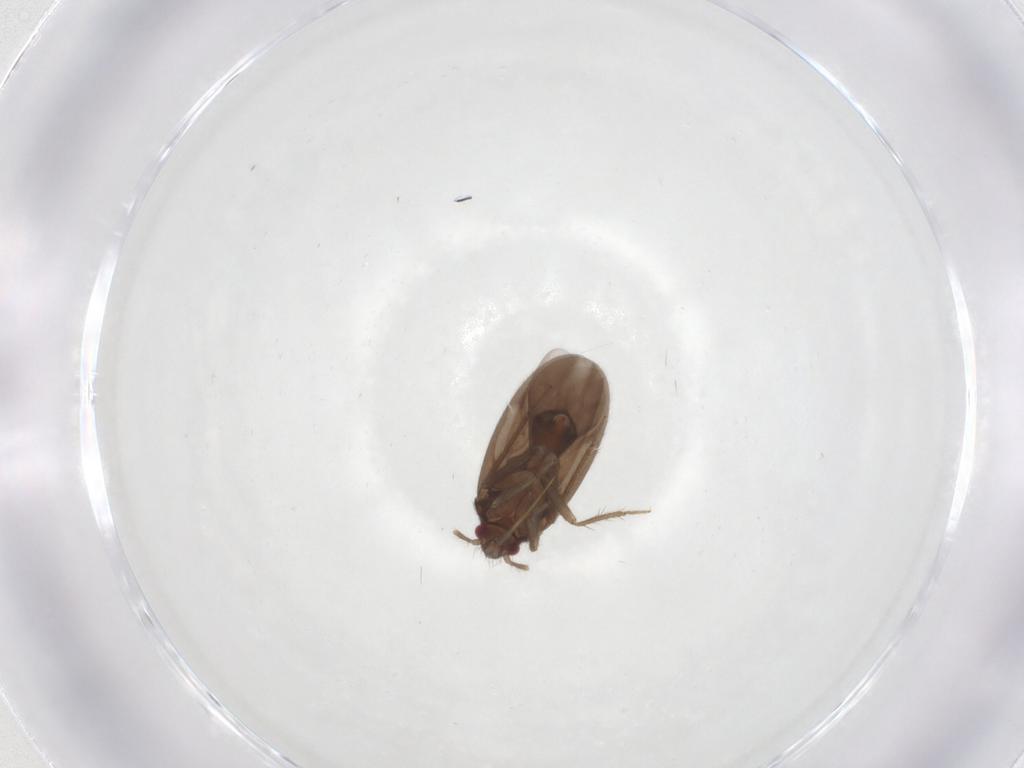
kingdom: Animalia
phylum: Arthropoda
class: Insecta
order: Hemiptera
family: Ceratocombidae
